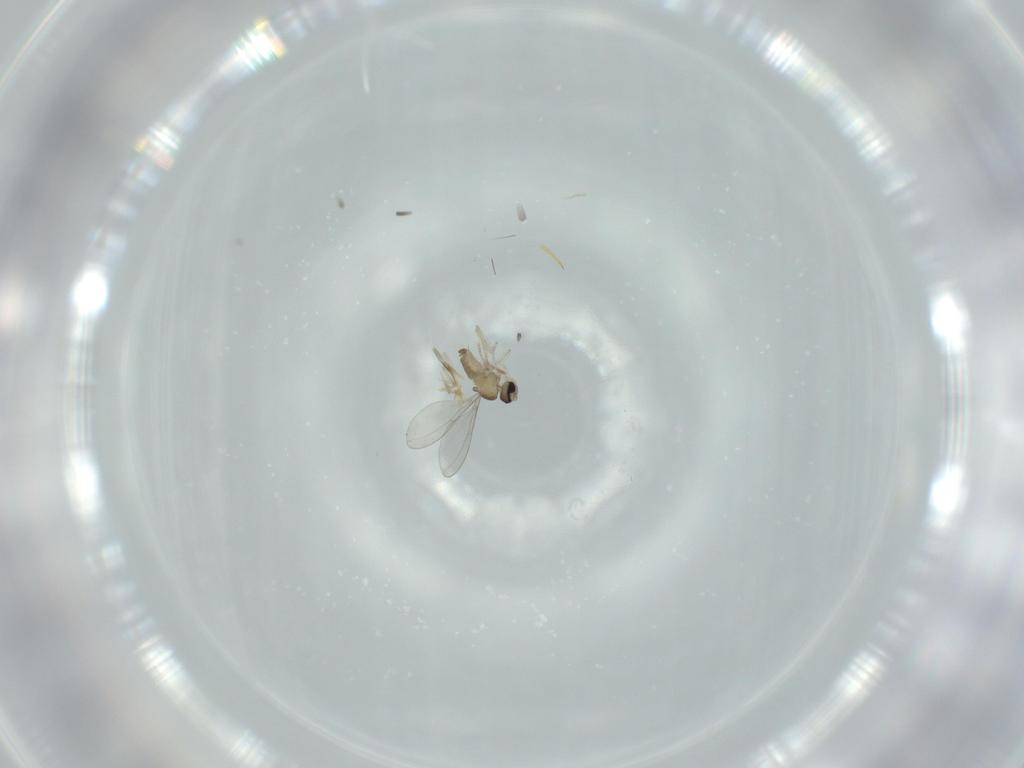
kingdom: Animalia
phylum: Arthropoda
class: Insecta
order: Diptera
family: Cecidomyiidae
